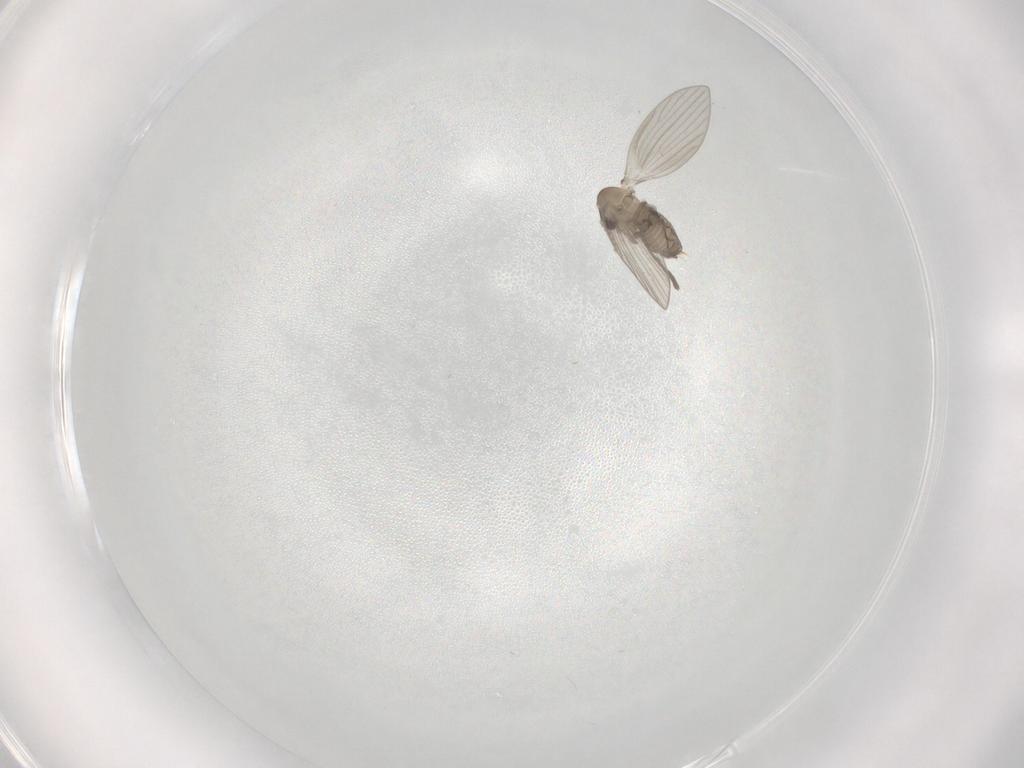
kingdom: Animalia
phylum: Arthropoda
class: Insecta
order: Diptera
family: Psychodidae
